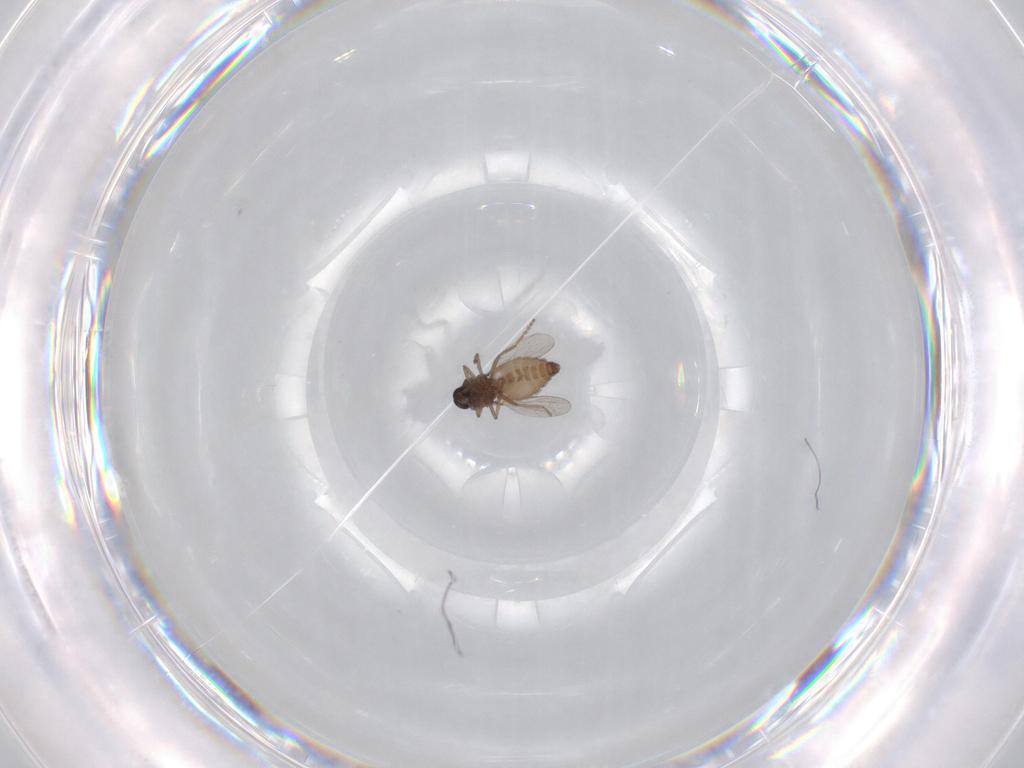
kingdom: Animalia
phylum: Arthropoda
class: Insecta
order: Diptera
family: Ceratopogonidae
